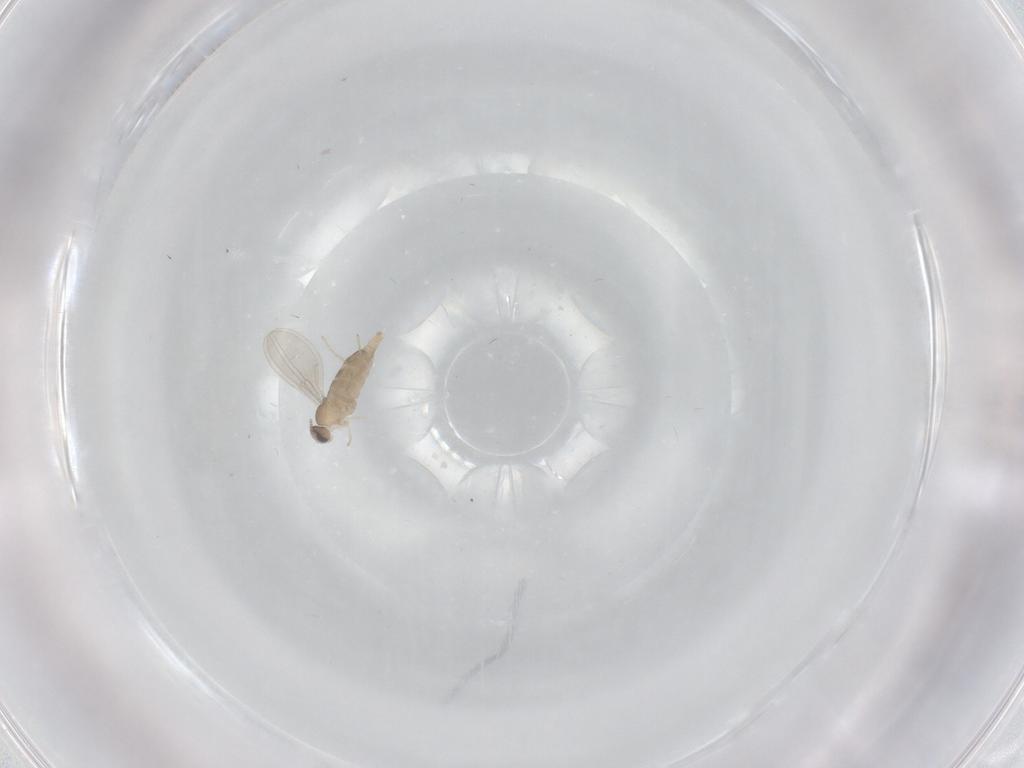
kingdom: Animalia
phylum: Arthropoda
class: Insecta
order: Diptera
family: Cecidomyiidae
